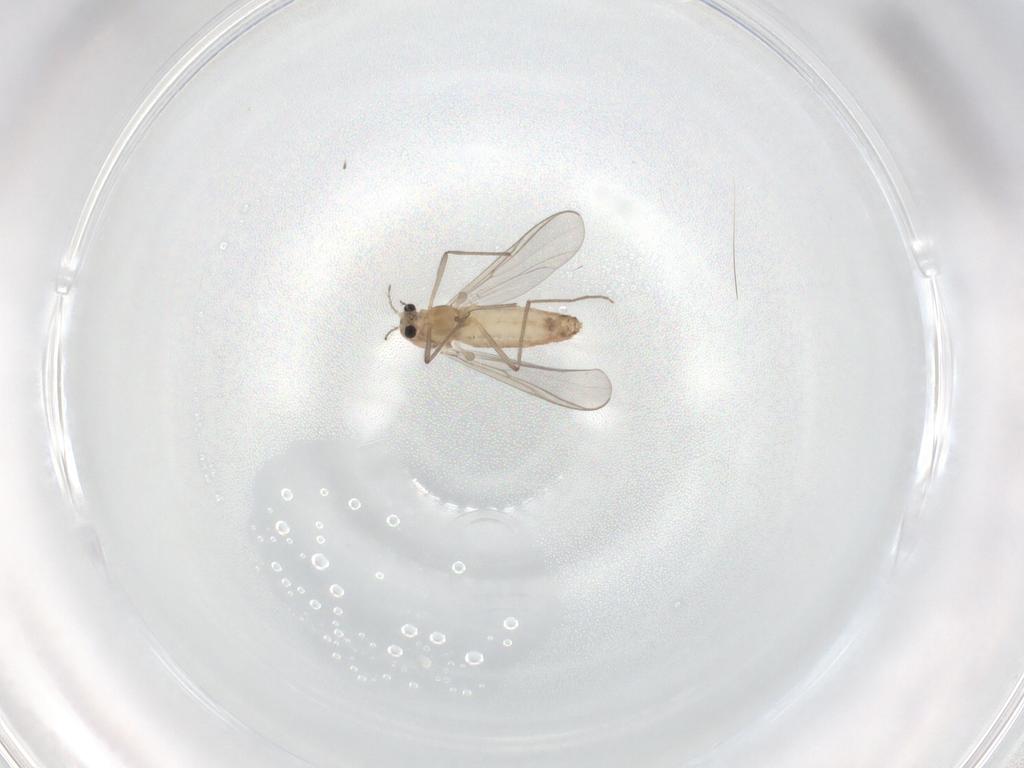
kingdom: Animalia
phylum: Arthropoda
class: Insecta
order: Diptera
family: Chironomidae
